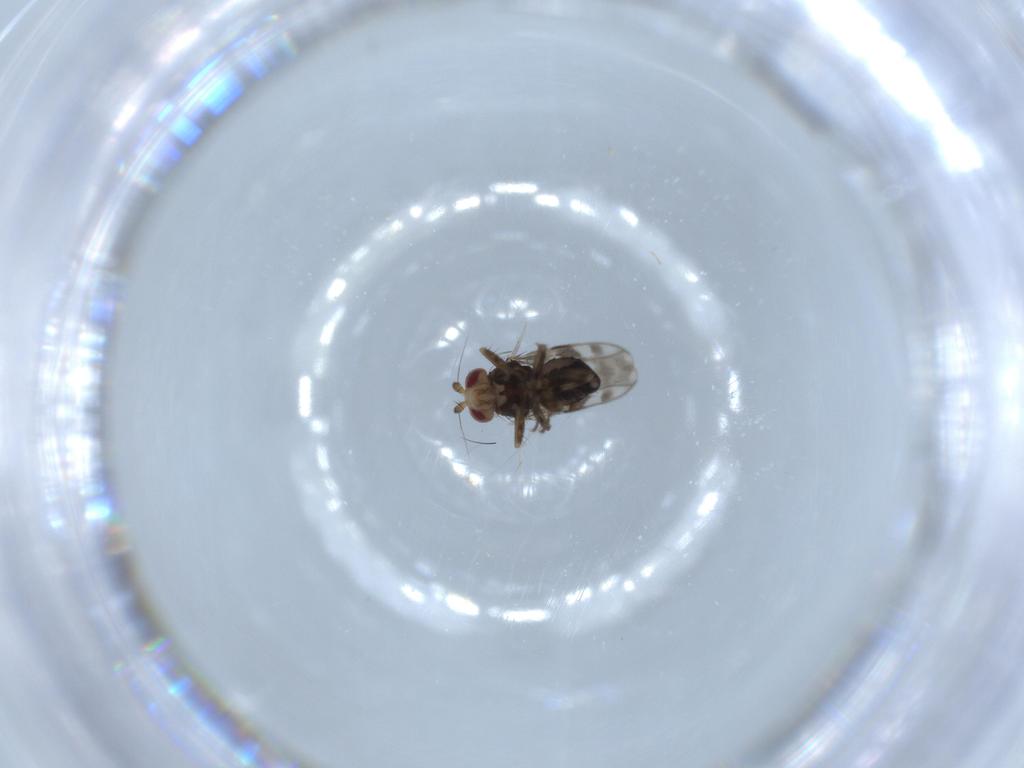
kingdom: Animalia
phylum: Arthropoda
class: Insecta
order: Diptera
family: Sphaeroceridae
